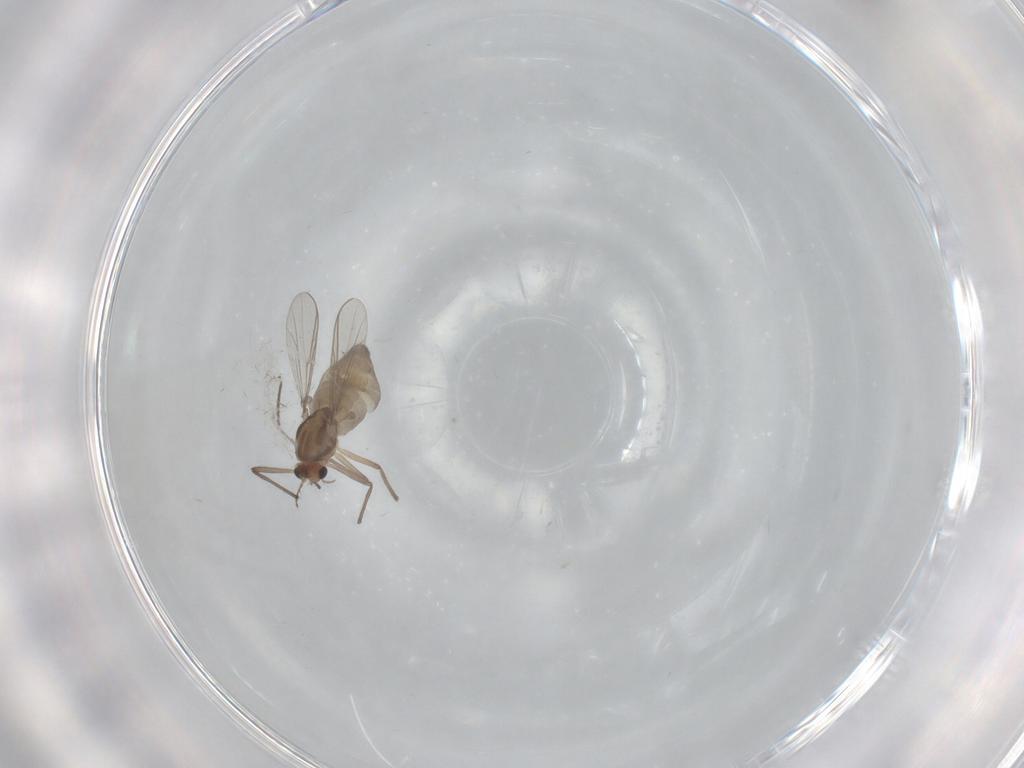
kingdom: Animalia
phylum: Arthropoda
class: Insecta
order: Diptera
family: Chironomidae
